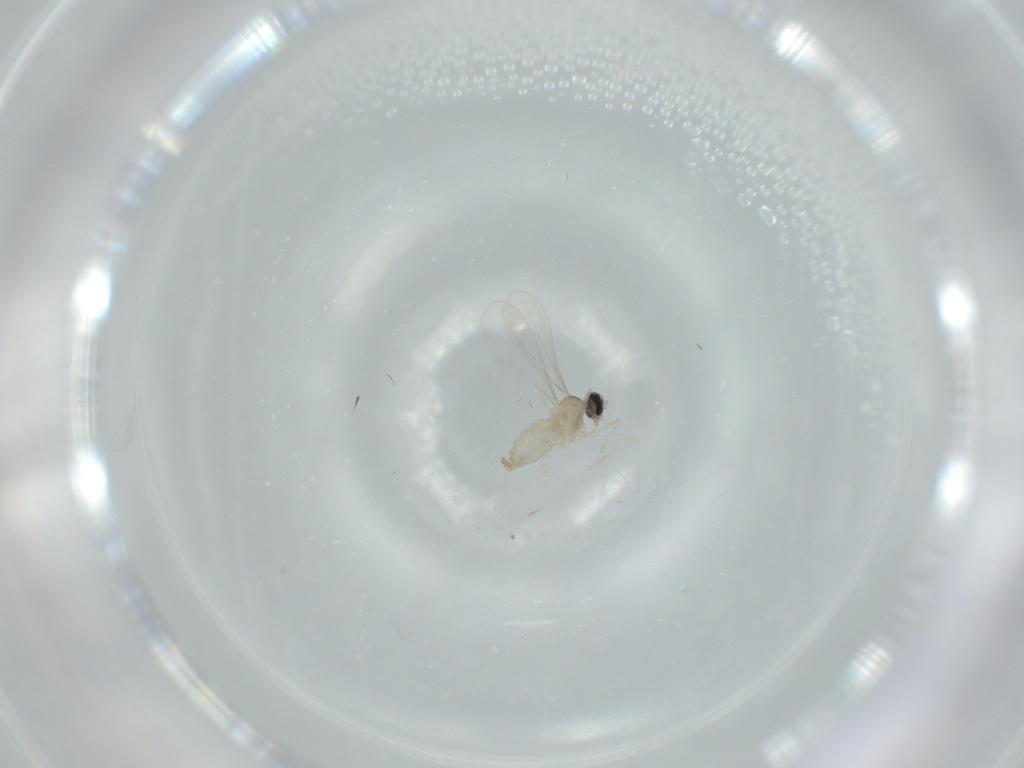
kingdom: Animalia
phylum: Arthropoda
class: Insecta
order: Diptera
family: Cecidomyiidae
